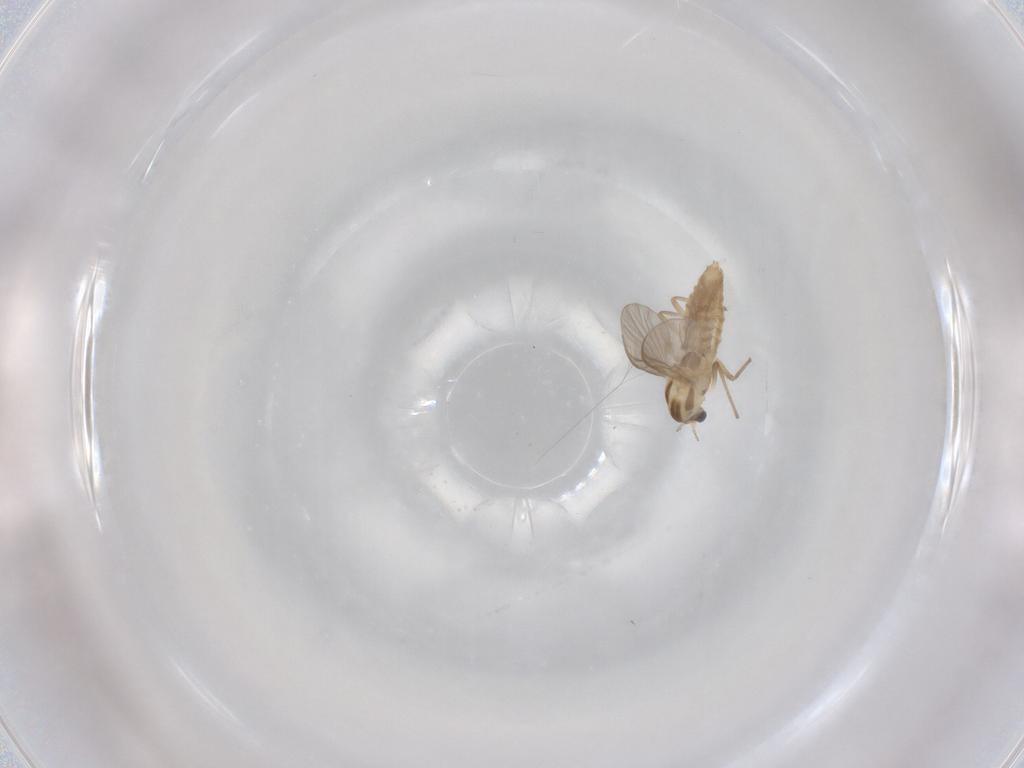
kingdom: Animalia
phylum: Arthropoda
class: Insecta
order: Diptera
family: Chironomidae
